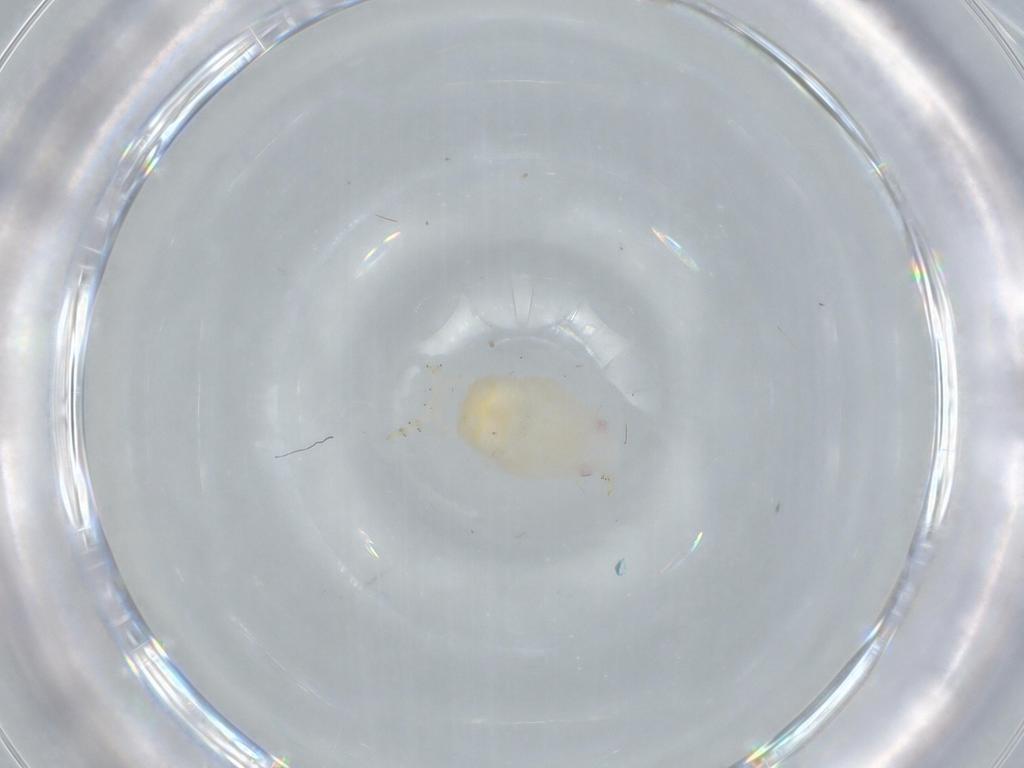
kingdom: Animalia
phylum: Arthropoda
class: Insecta
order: Hemiptera
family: Flatidae
